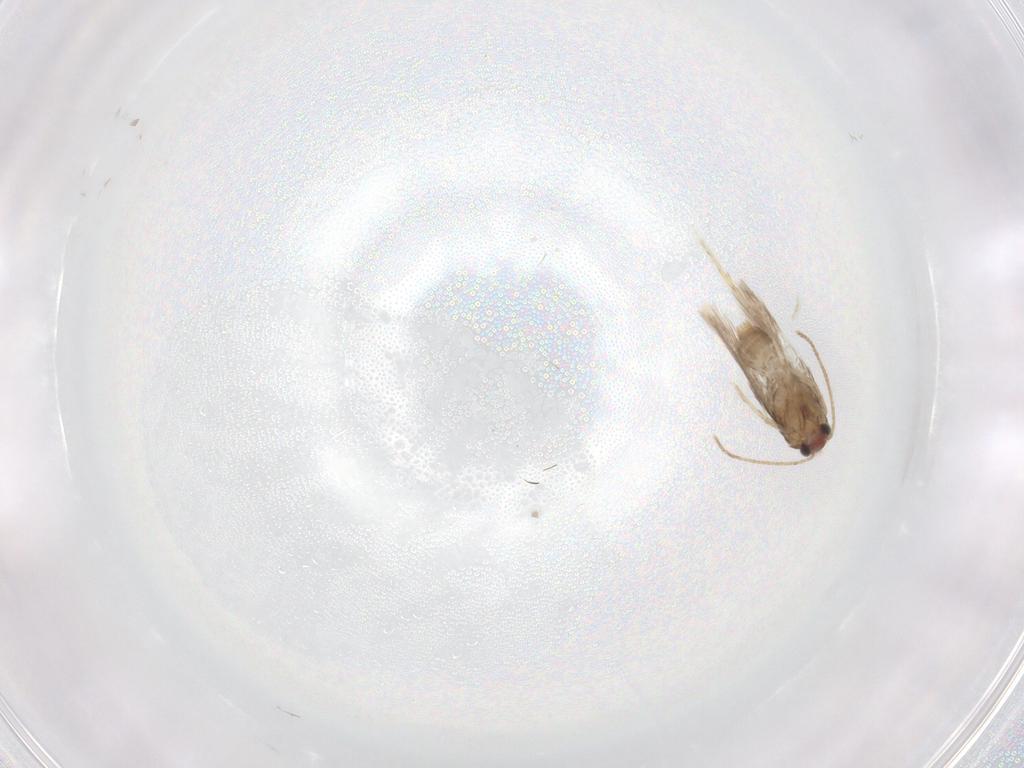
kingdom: Animalia
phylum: Arthropoda
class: Insecta
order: Lepidoptera
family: Nepticulidae
